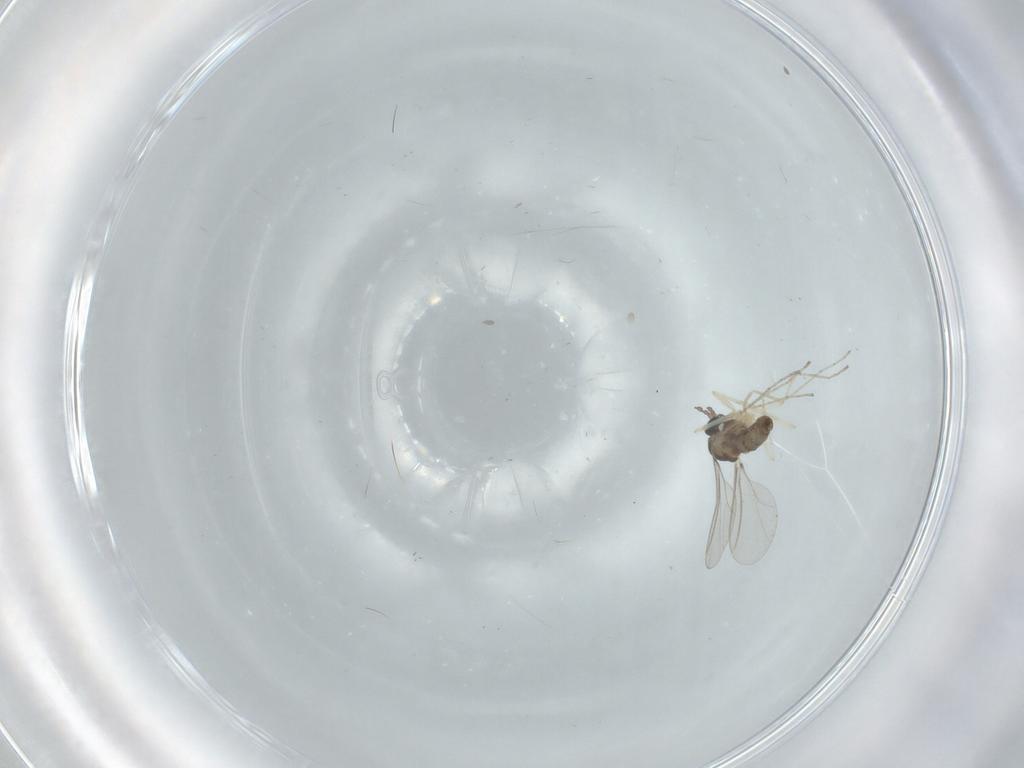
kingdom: Animalia
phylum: Arthropoda
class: Insecta
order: Diptera
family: Cecidomyiidae
